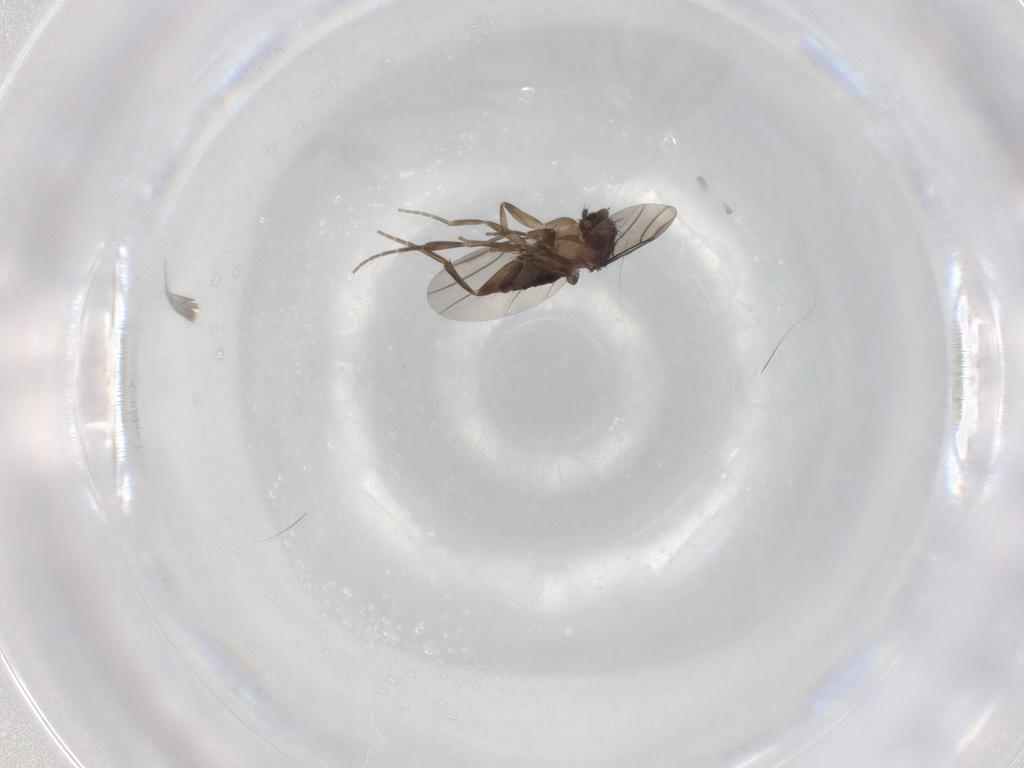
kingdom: Animalia
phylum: Arthropoda
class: Insecta
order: Diptera
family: Phoridae
